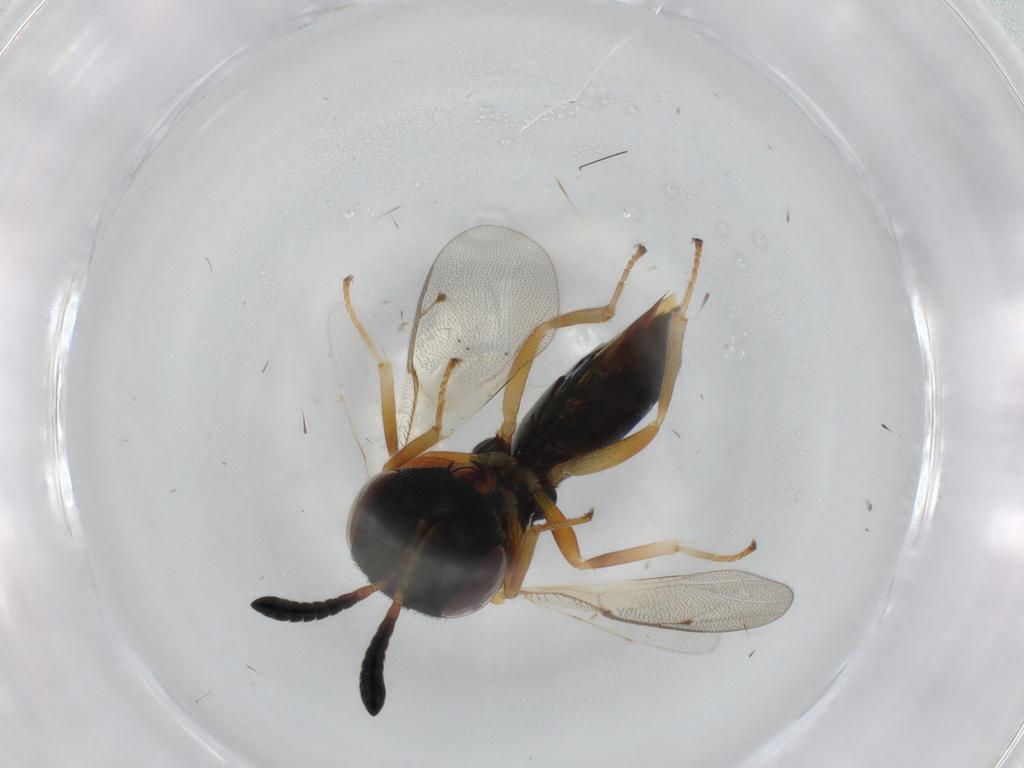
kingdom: Animalia
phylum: Arthropoda
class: Insecta
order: Hymenoptera
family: Agaonidae
